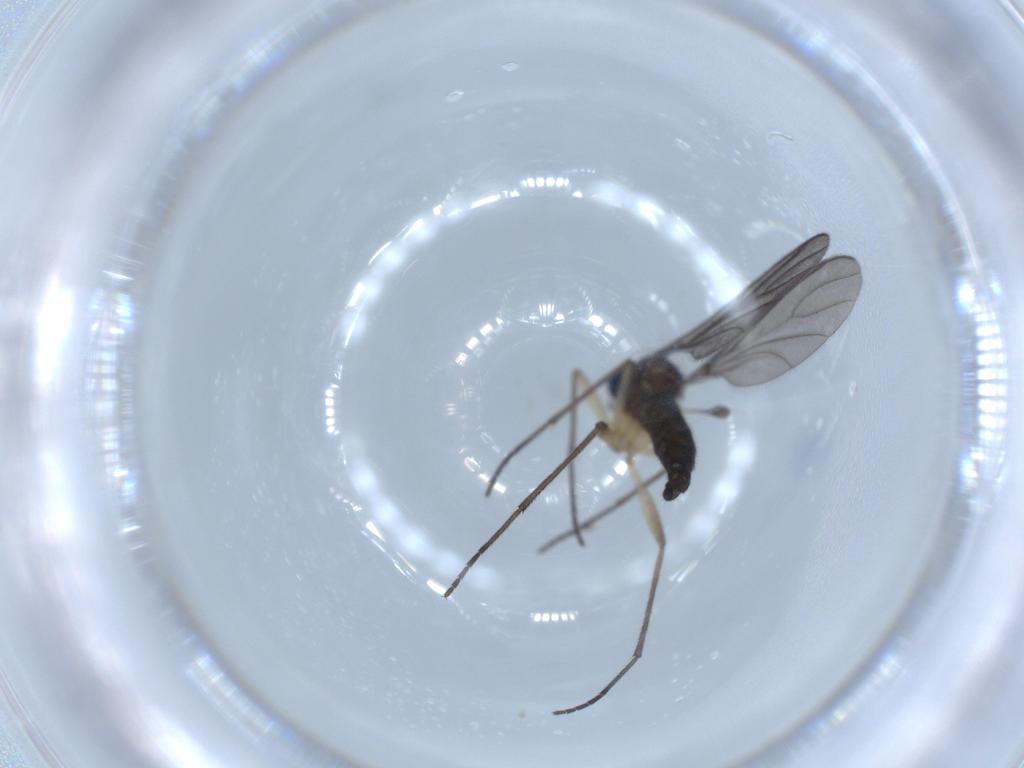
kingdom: Animalia
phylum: Arthropoda
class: Insecta
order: Diptera
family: Sciaridae
